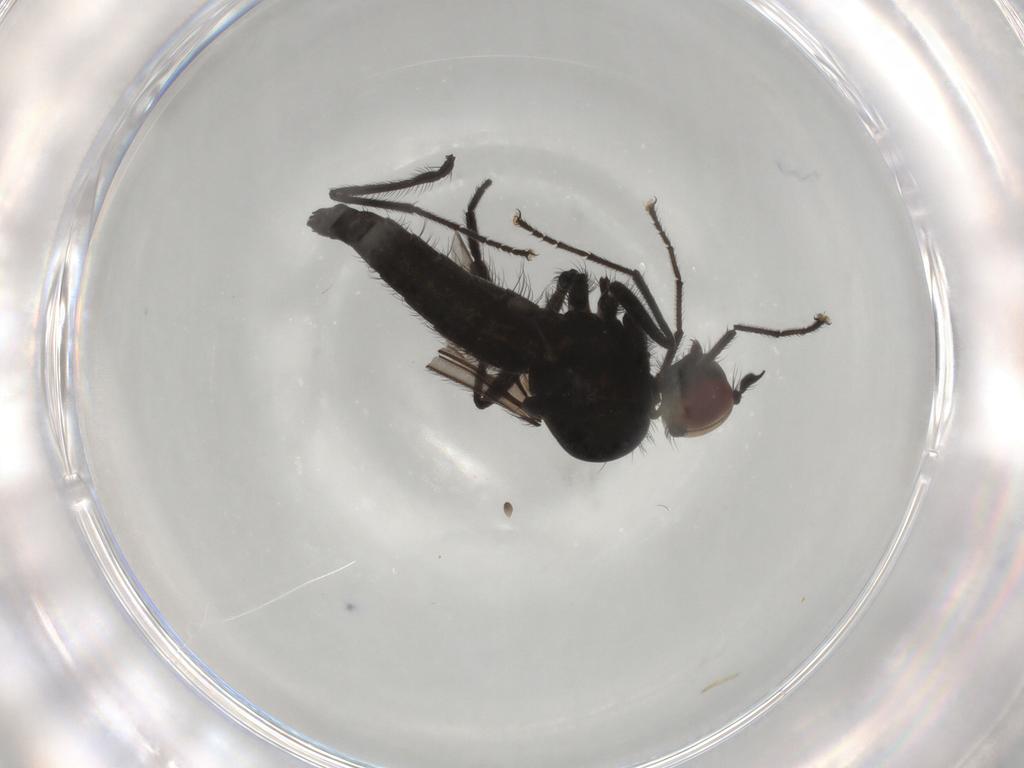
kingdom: Animalia
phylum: Arthropoda
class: Insecta
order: Diptera
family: Hybotidae
